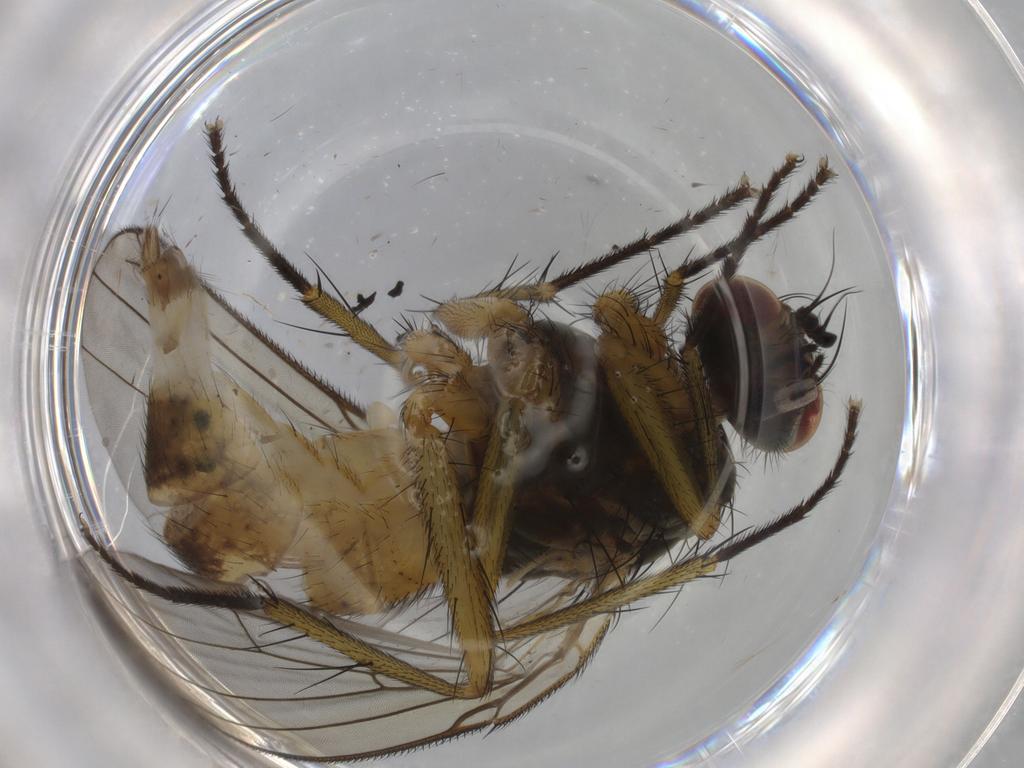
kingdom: Animalia
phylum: Arthropoda
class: Insecta
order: Diptera
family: Muscidae
